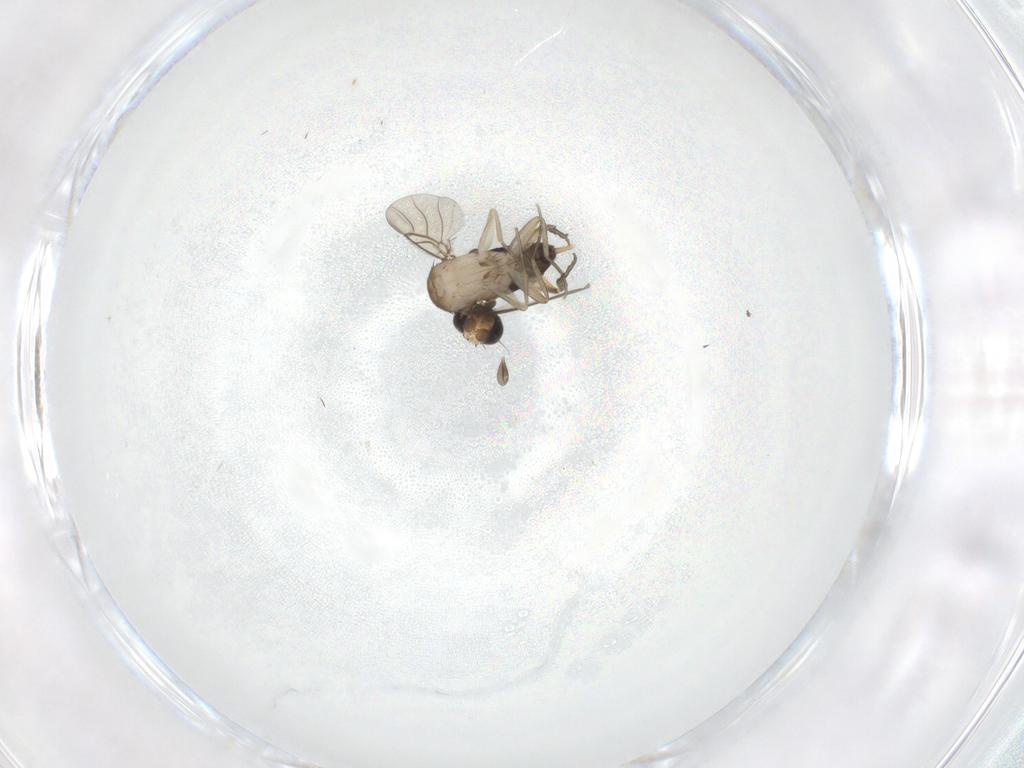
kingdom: Animalia
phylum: Arthropoda
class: Insecta
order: Diptera
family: Phoridae
